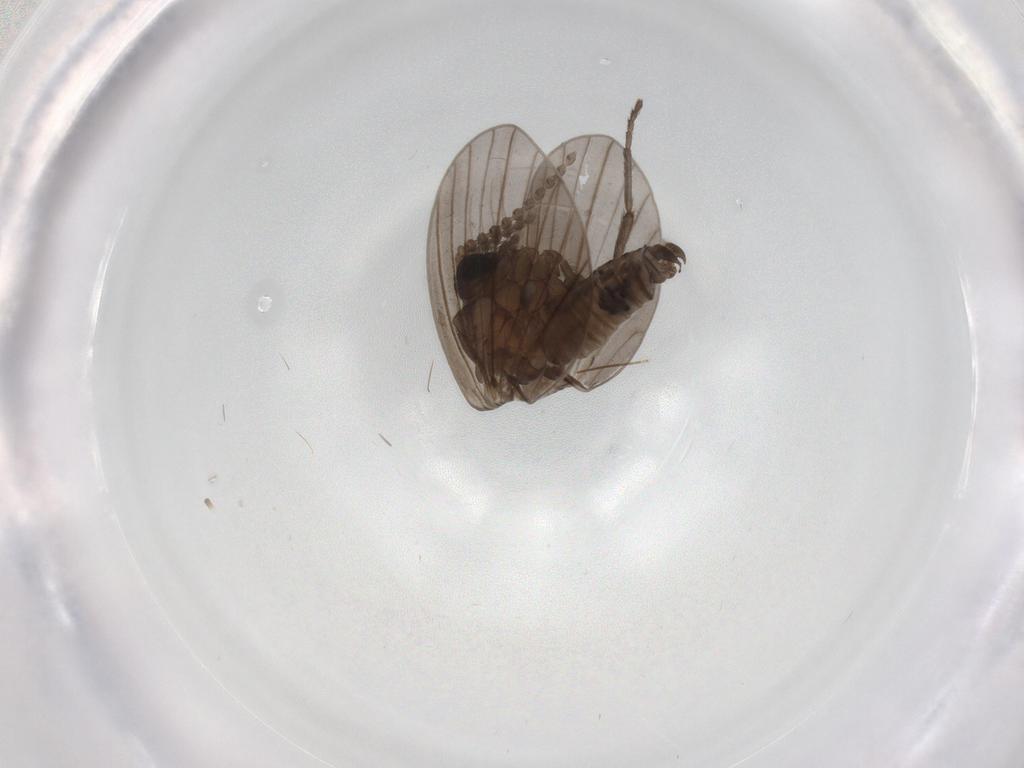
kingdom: Animalia
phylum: Arthropoda
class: Insecta
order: Diptera
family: Psychodidae
